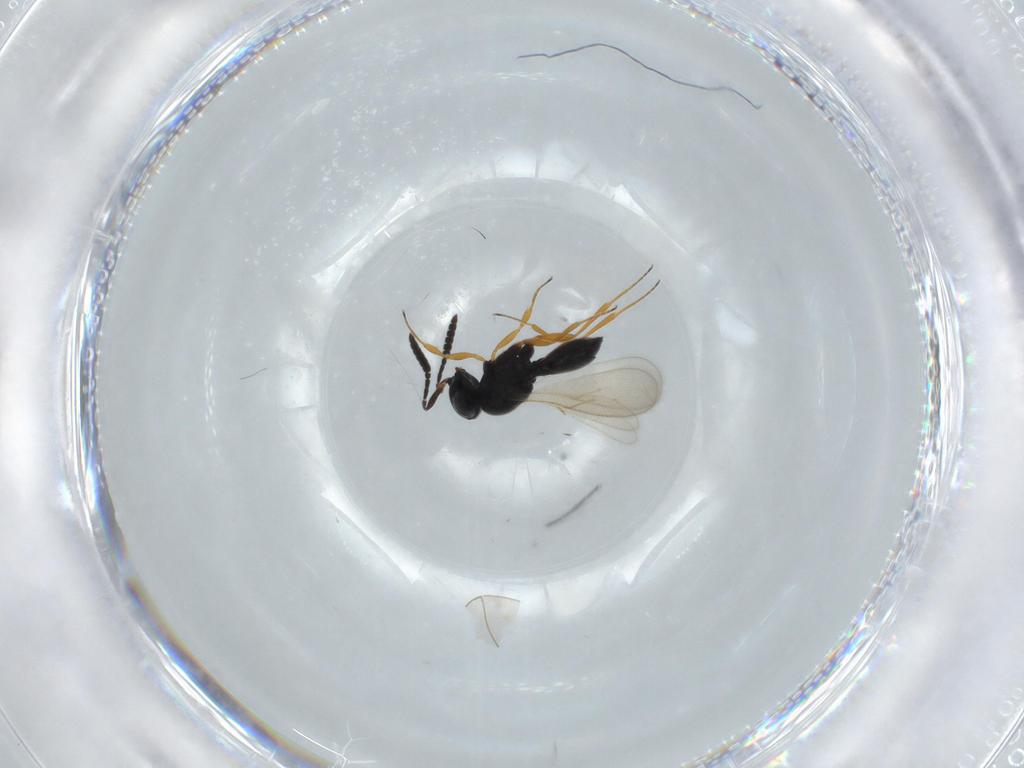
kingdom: Animalia
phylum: Arthropoda
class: Insecta
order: Hymenoptera
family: Scelionidae
